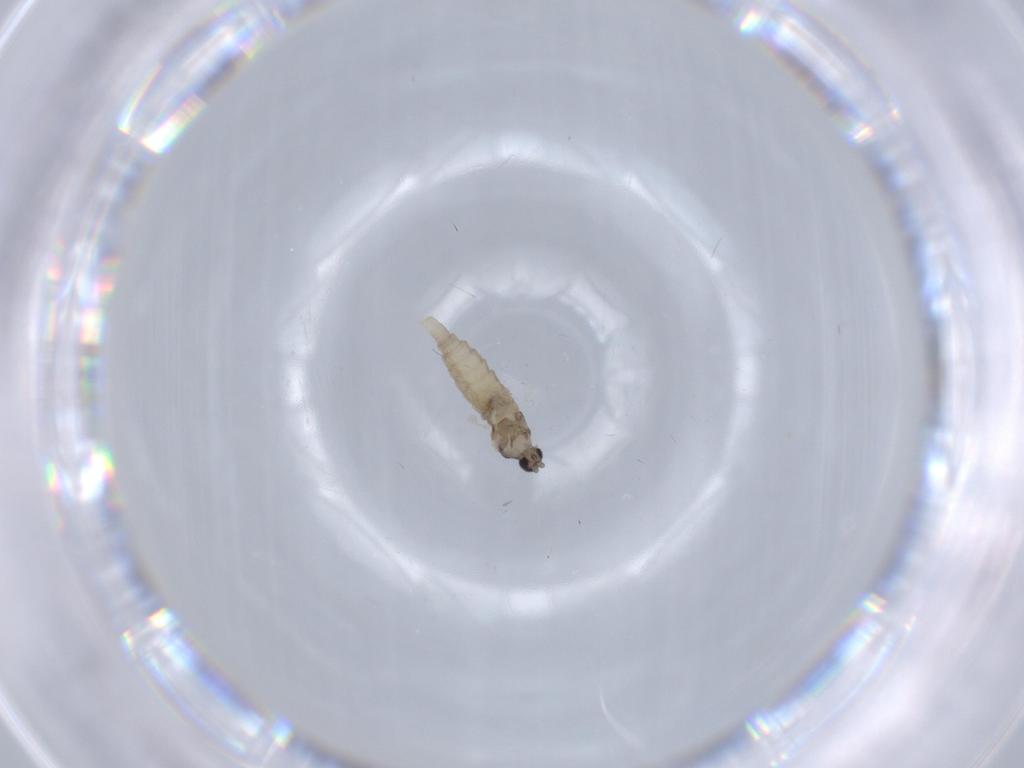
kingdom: Animalia
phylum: Arthropoda
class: Insecta
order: Diptera
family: Cecidomyiidae
